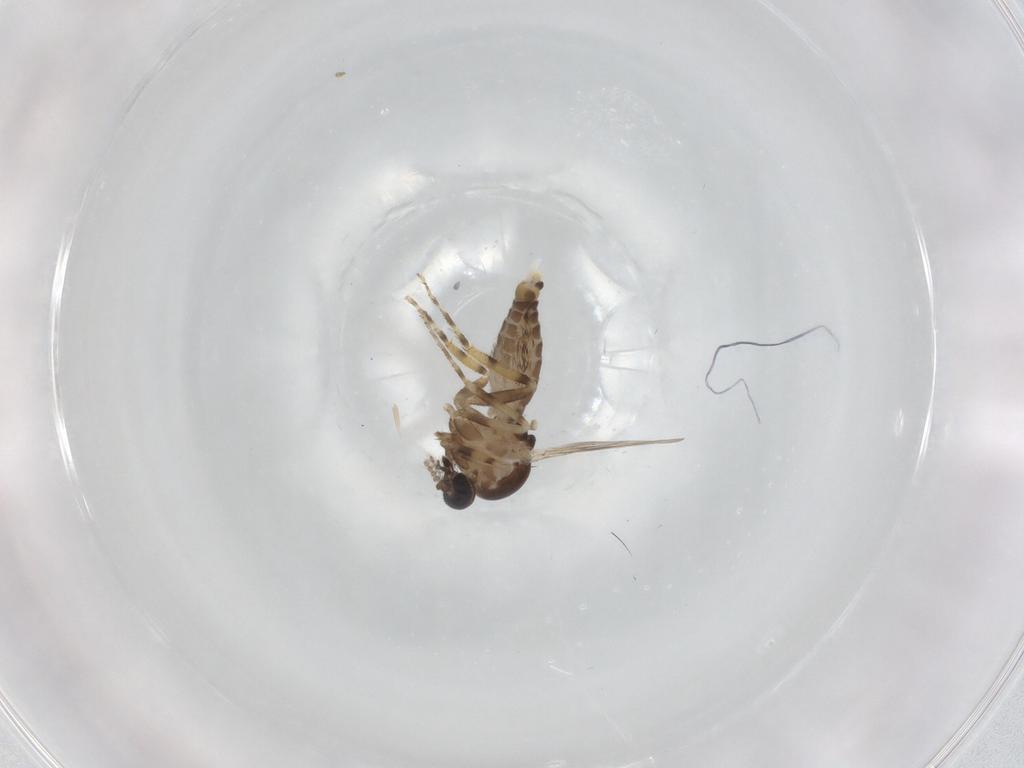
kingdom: Animalia
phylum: Arthropoda
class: Insecta
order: Diptera
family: Ceratopogonidae
